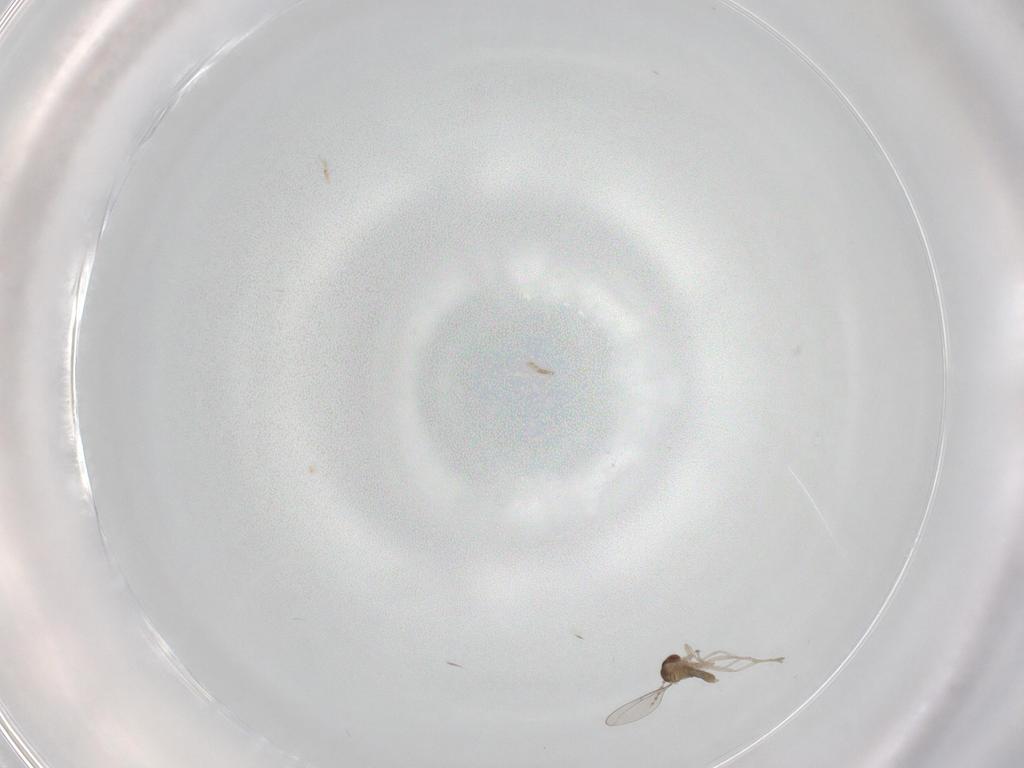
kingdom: Animalia
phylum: Arthropoda
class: Insecta
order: Diptera
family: Cecidomyiidae
